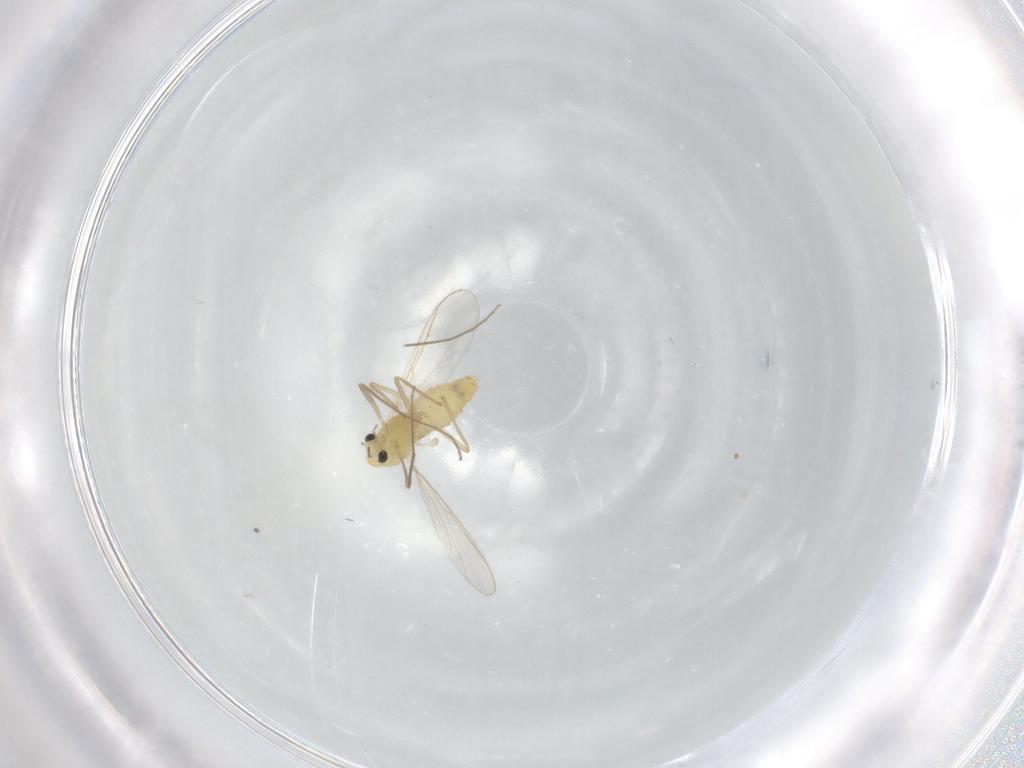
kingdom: Animalia
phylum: Arthropoda
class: Insecta
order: Diptera
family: Chironomidae
